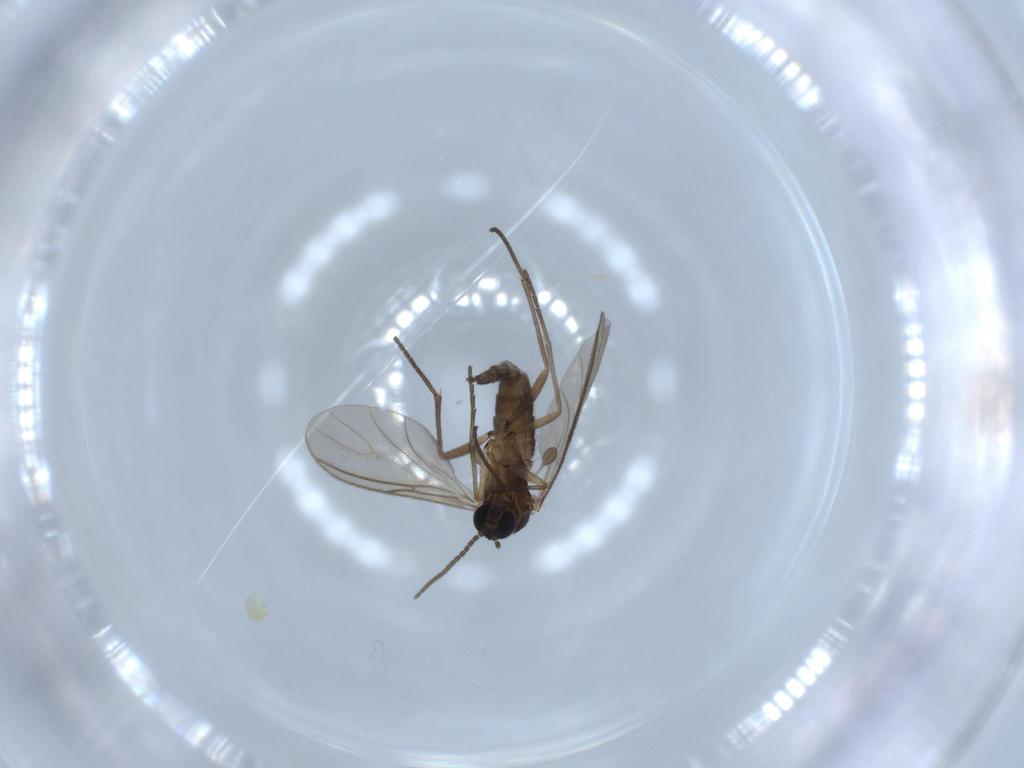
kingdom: Animalia
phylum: Arthropoda
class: Insecta
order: Diptera
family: Sciaridae
